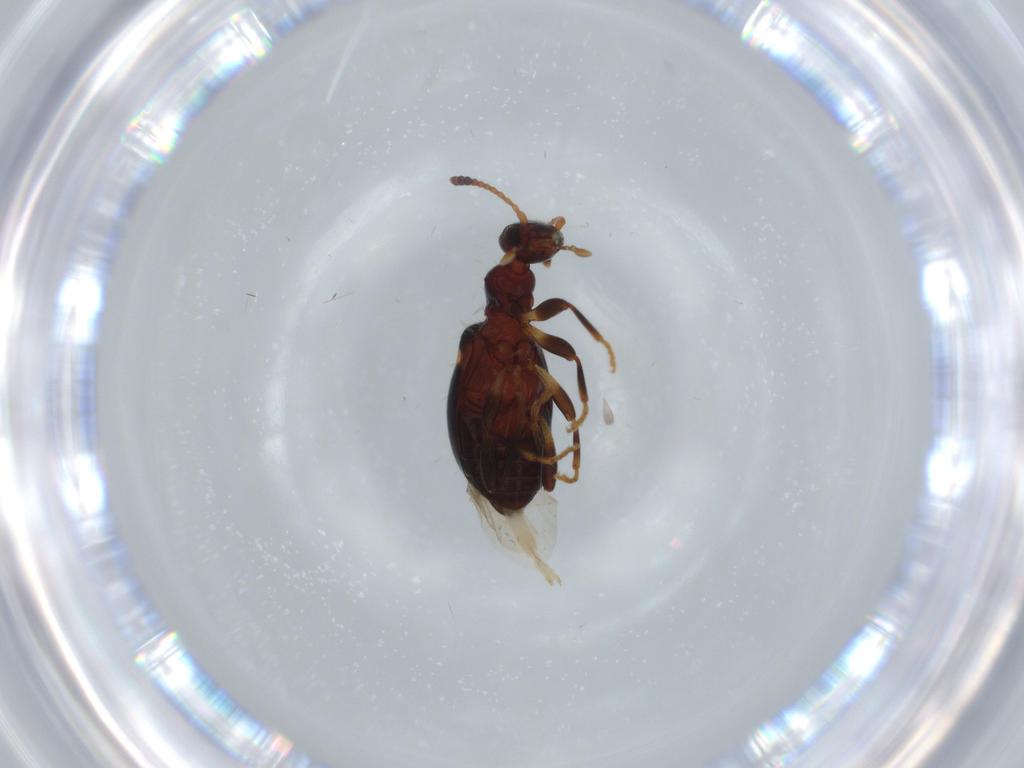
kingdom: Animalia
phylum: Arthropoda
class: Insecta
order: Coleoptera
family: Anthicidae
